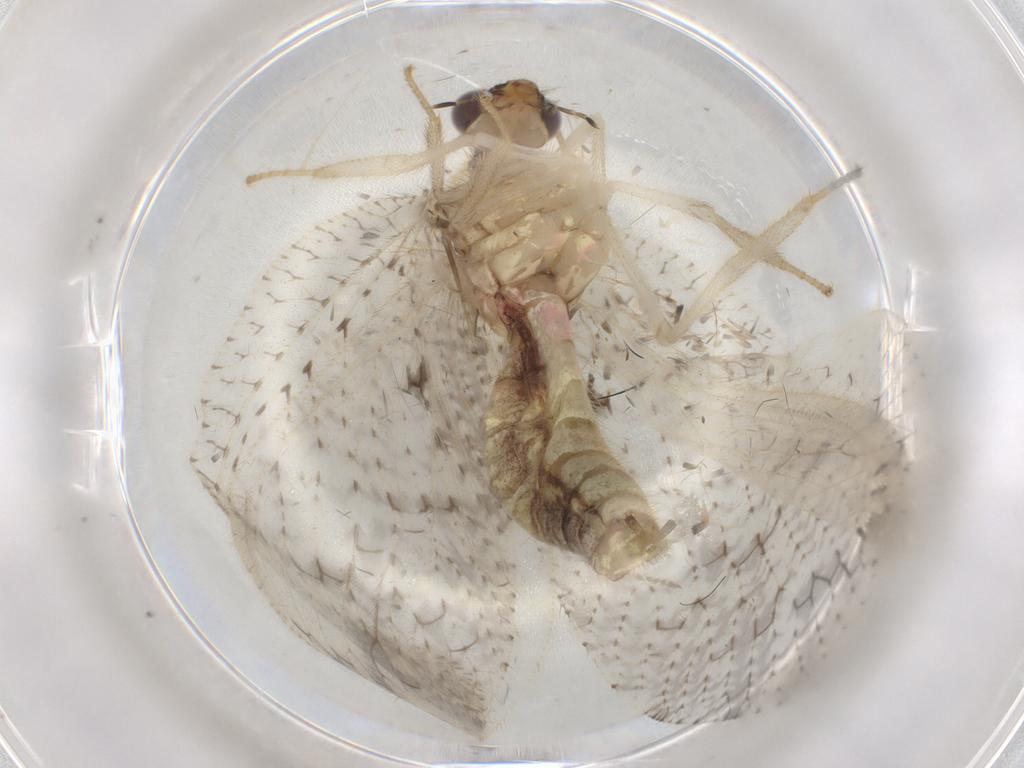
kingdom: Animalia
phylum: Arthropoda
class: Insecta
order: Neuroptera
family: Hemerobiidae
